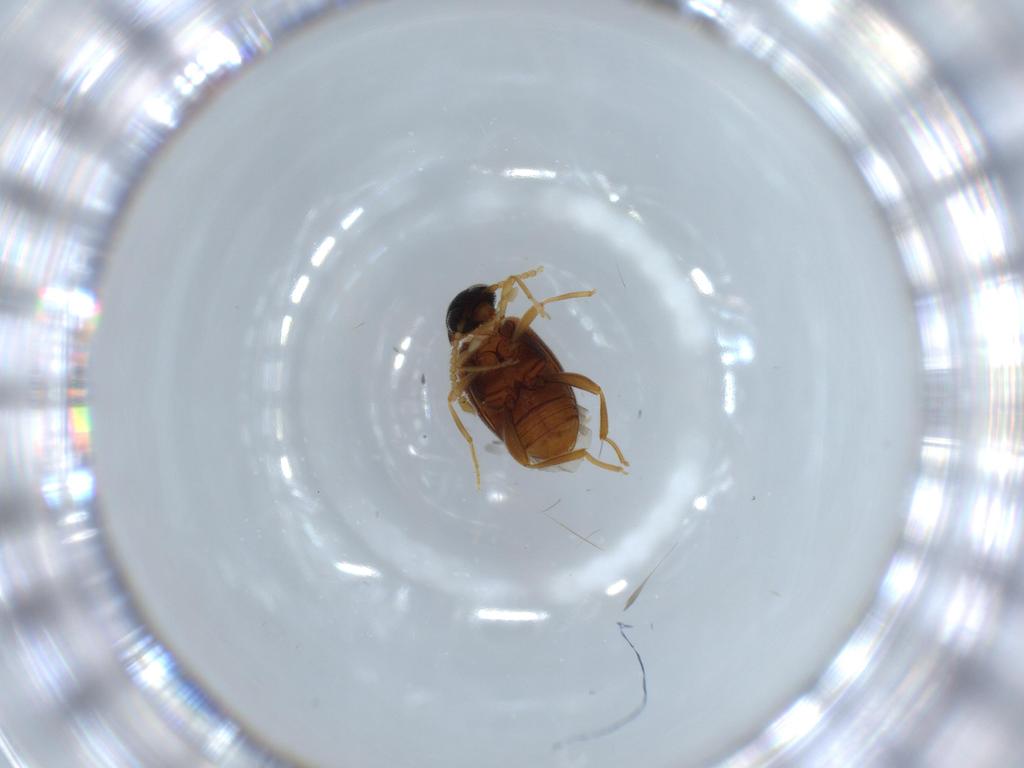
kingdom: Animalia
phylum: Arthropoda
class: Insecta
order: Coleoptera
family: Aderidae
